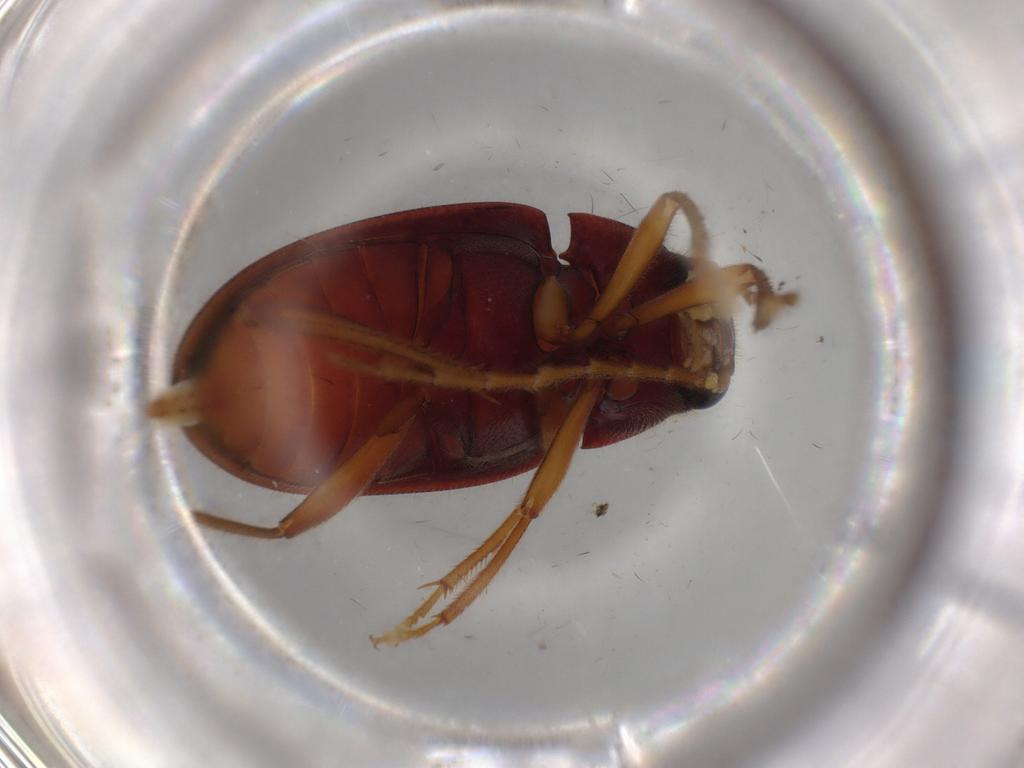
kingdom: Animalia
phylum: Arthropoda
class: Insecta
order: Coleoptera
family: Ptilodactylidae
